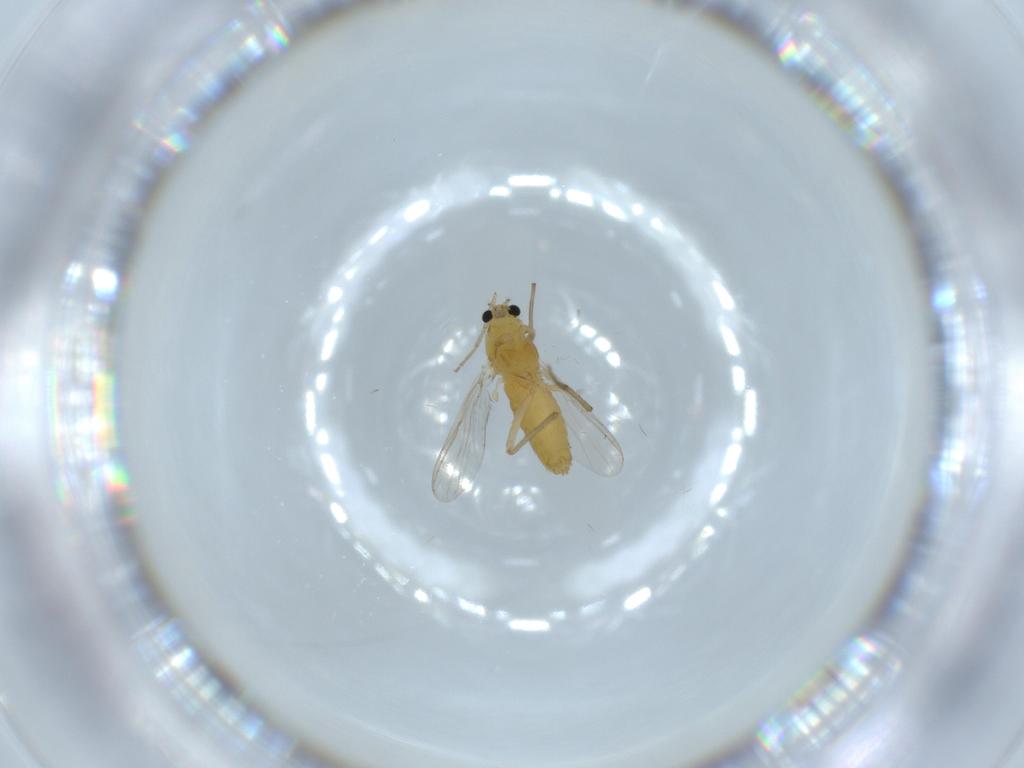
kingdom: Animalia
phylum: Arthropoda
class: Insecta
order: Diptera
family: Chironomidae
